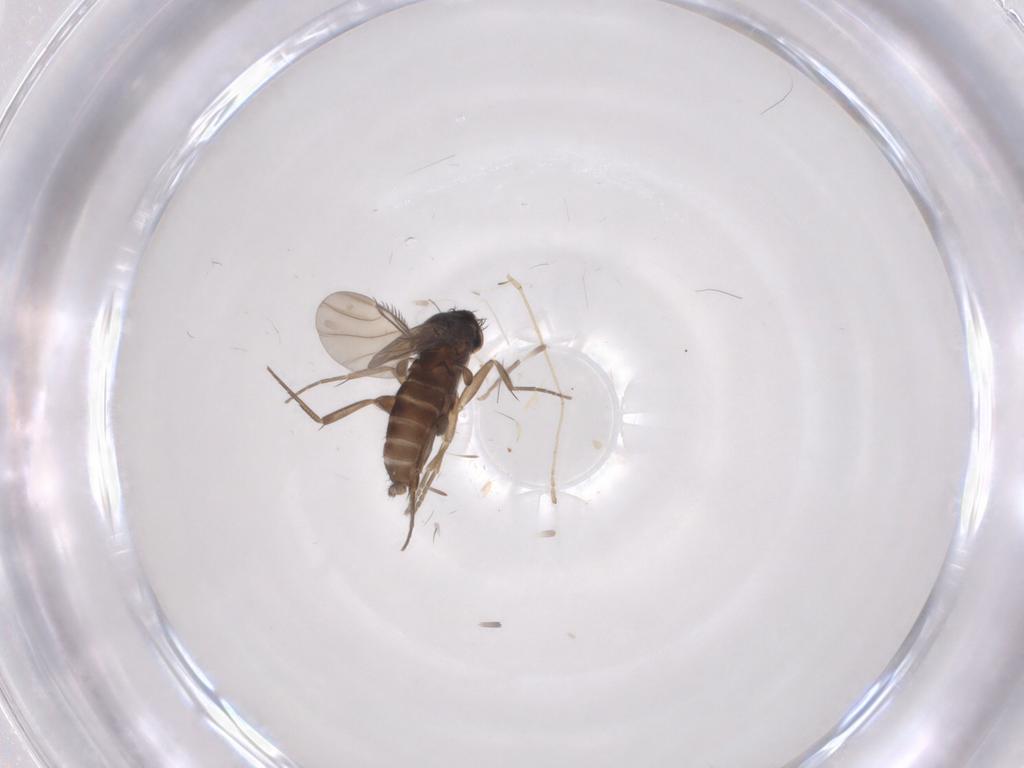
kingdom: Animalia
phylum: Arthropoda
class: Insecta
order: Diptera
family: Phoridae
